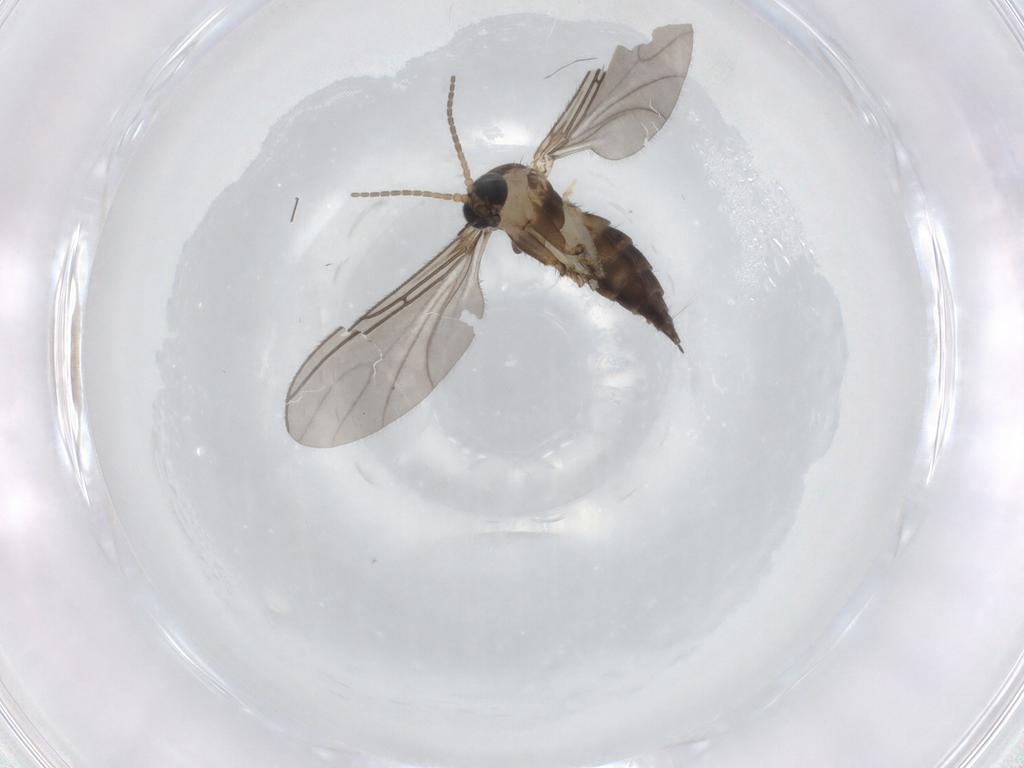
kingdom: Animalia
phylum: Arthropoda
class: Insecta
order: Diptera
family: Sciaridae
